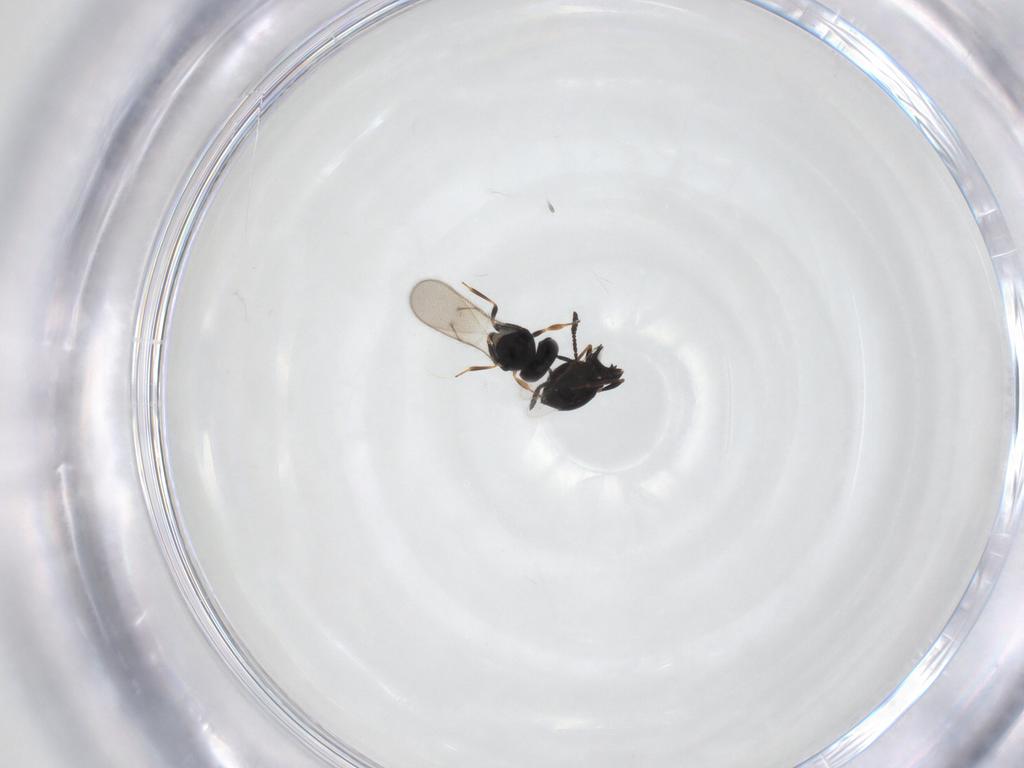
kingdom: Animalia
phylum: Arthropoda
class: Insecta
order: Hymenoptera
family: Scelionidae
